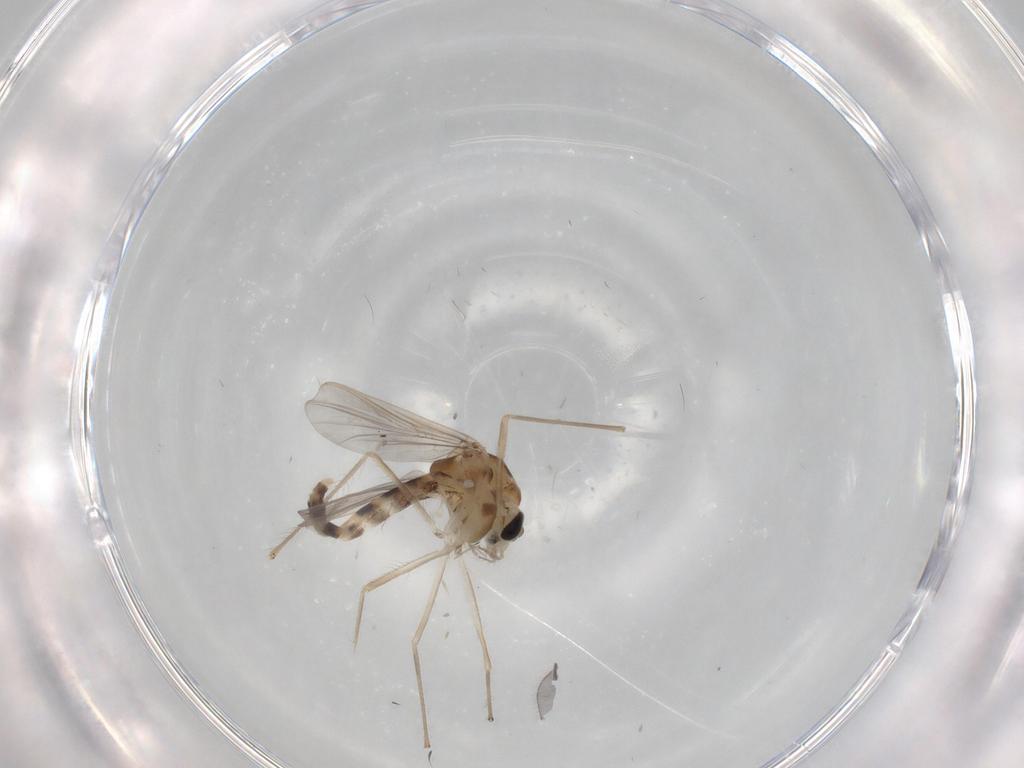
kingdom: Animalia
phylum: Arthropoda
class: Insecta
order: Diptera
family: Chironomidae
